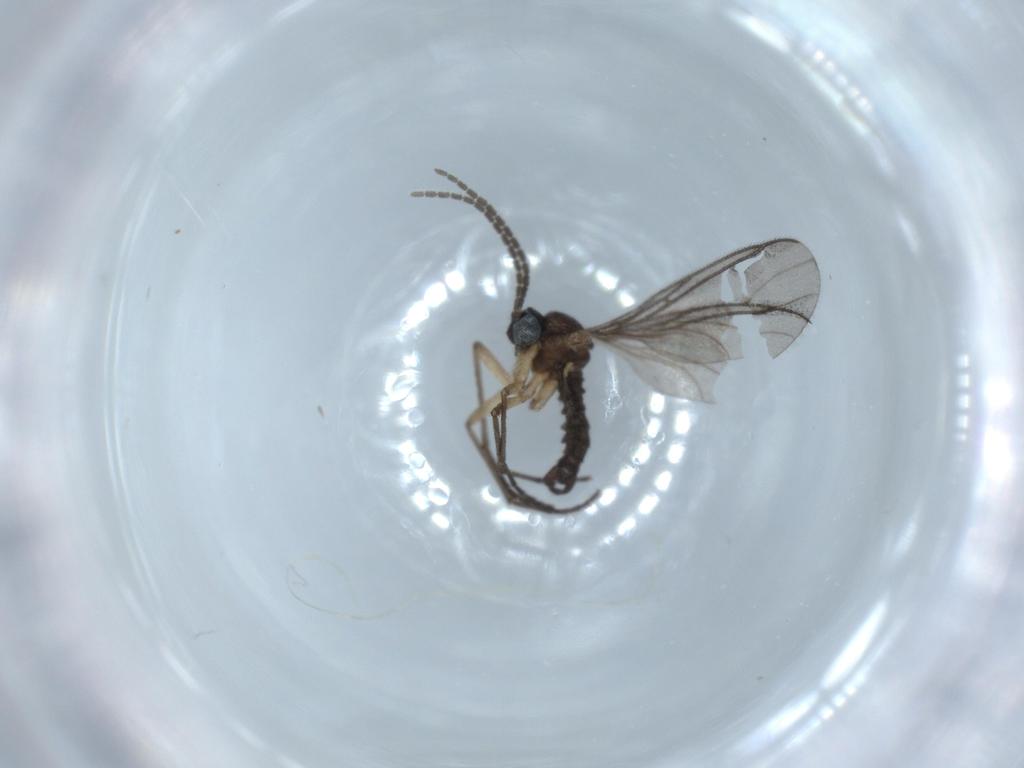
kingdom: Animalia
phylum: Arthropoda
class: Insecta
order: Diptera
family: Sciaridae
